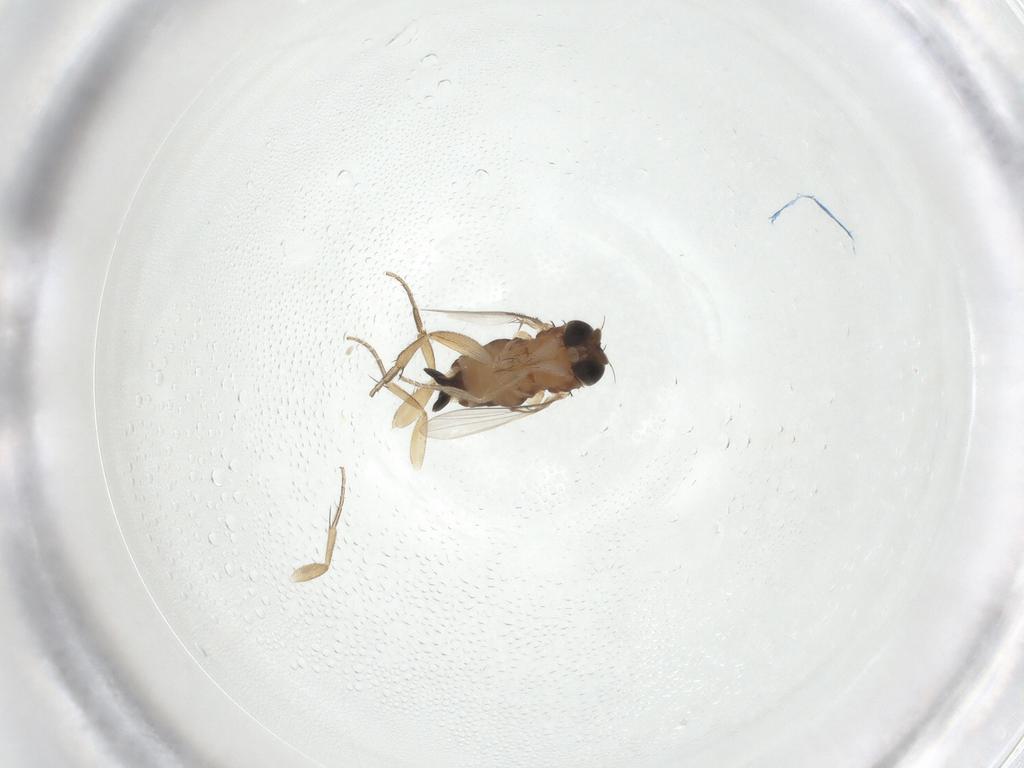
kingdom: Animalia
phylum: Arthropoda
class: Insecta
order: Diptera
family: Phoridae
